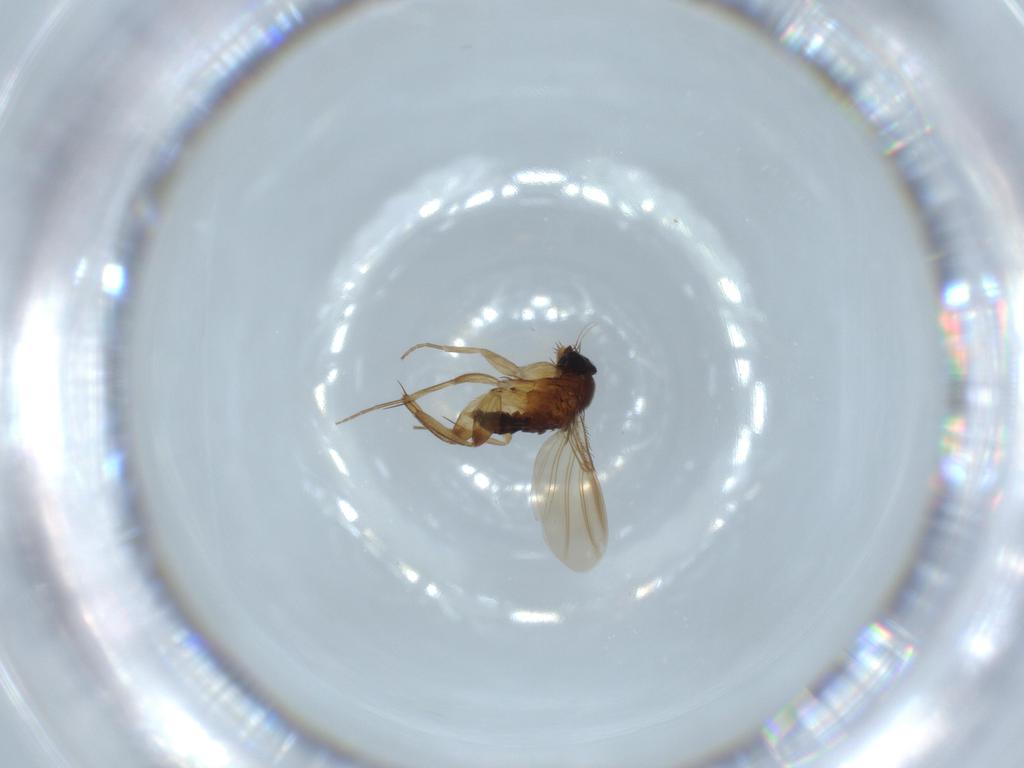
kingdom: Animalia
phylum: Arthropoda
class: Insecta
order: Diptera
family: Phoridae
